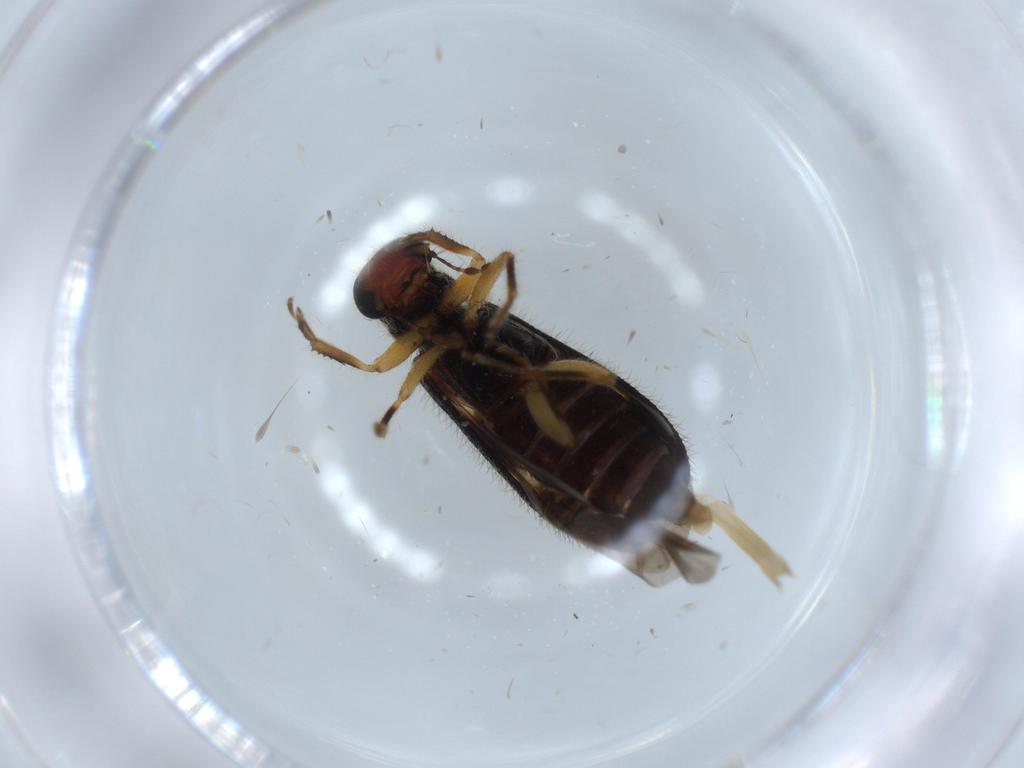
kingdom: Animalia
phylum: Arthropoda
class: Insecta
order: Coleoptera
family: Cleridae
